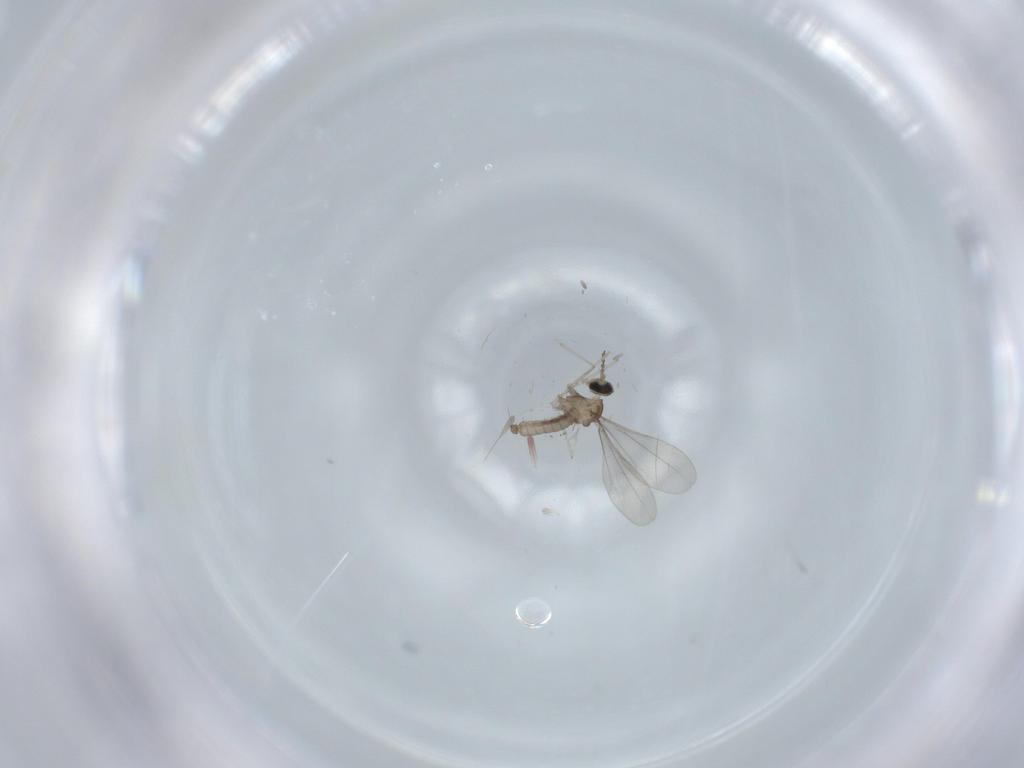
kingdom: Animalia
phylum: Arthropoda
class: Insecta
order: Diptera
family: Cecidomyiidae
